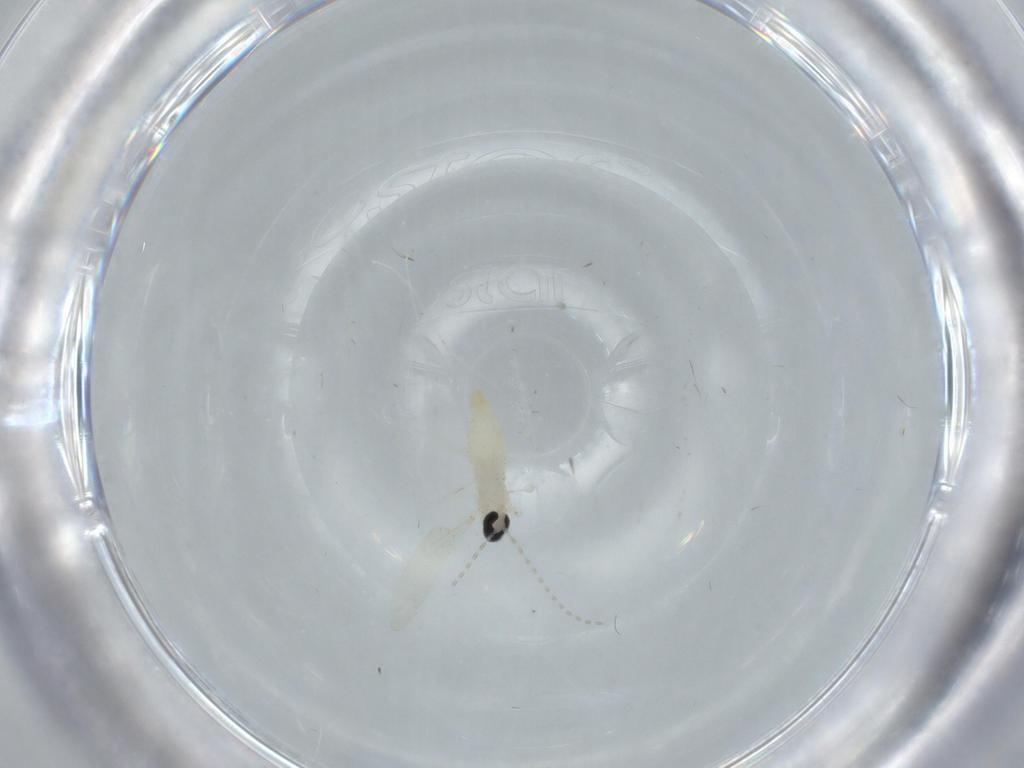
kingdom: Animalia
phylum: Arthropoda
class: Insecta
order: Diptera
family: Cecidomyiidae
